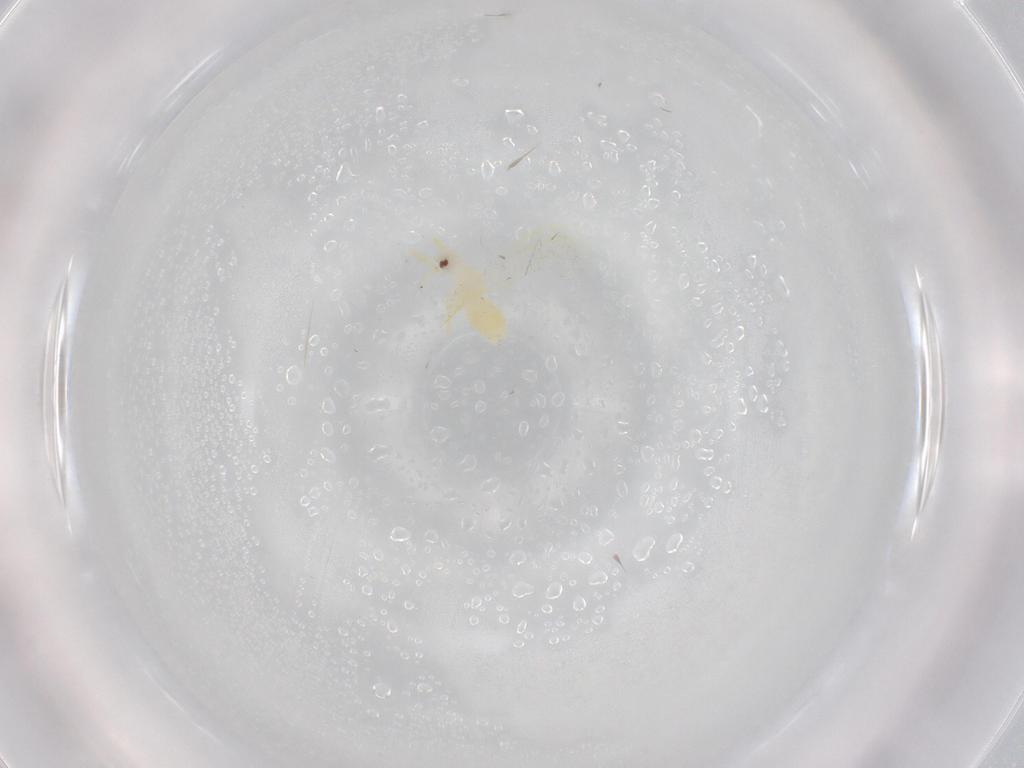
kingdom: Animalia
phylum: Arthropoda
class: Insecta
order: Hemiptera
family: Aleyrodidae
